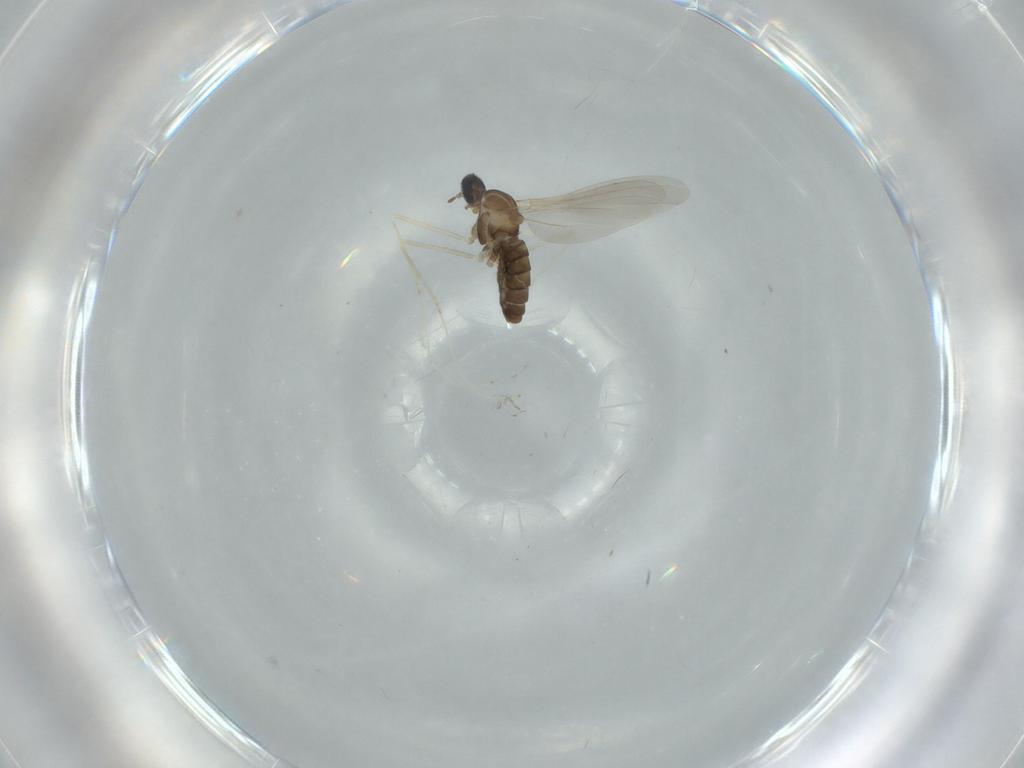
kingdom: Animalia
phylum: Arthropoda
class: Insecta
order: Diptera
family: Cecidomyiidae
